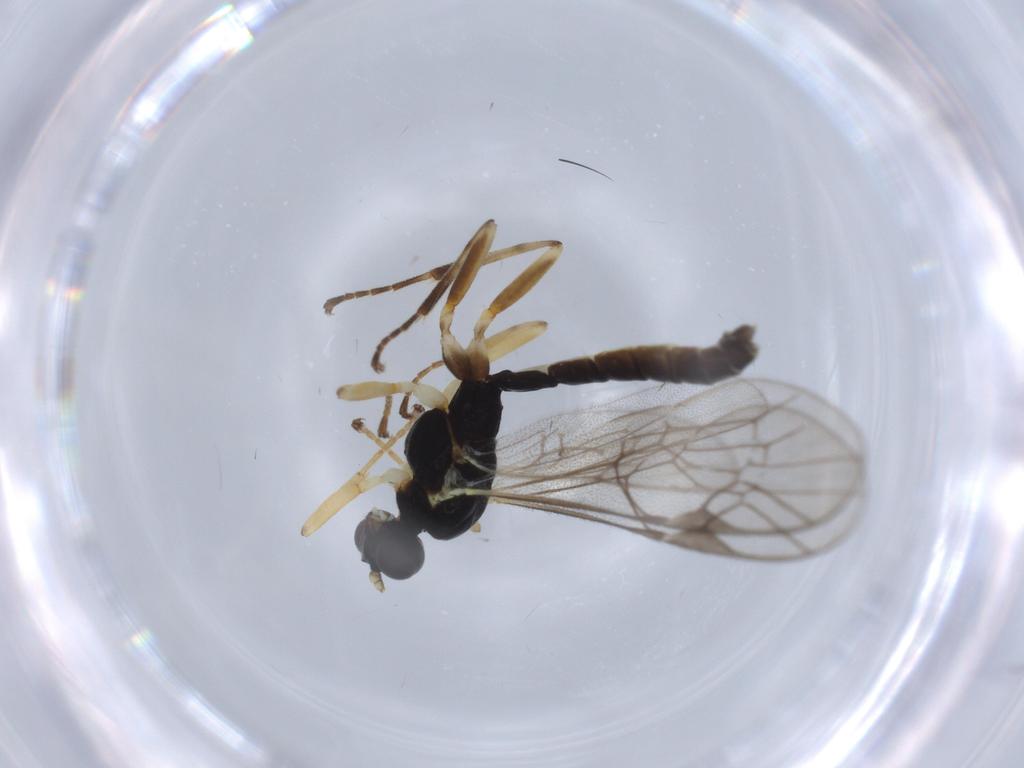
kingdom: Animalia
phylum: Arthropoda
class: Insecta
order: Hymenoptera
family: Ichneumonidae
